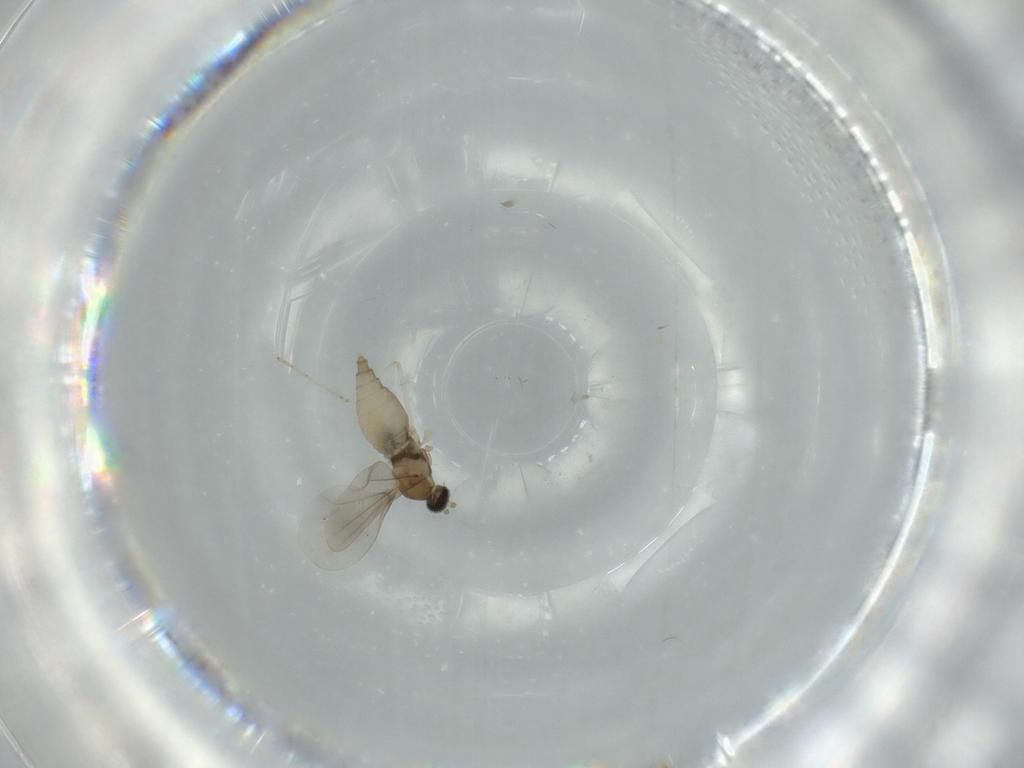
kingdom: Animalia
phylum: Arthropoda
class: Insecta
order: Diptera
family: Cecidomyiidae
